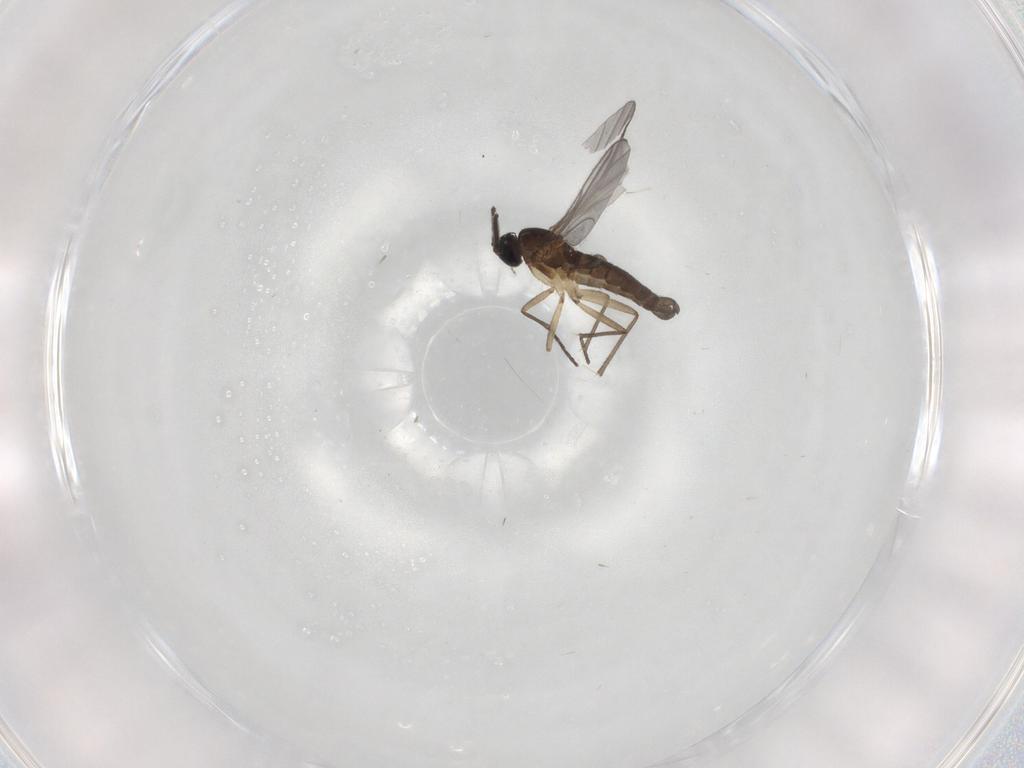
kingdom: Animalia
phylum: Arthropoda
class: Insecta
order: Diptera
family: Sciaridae
